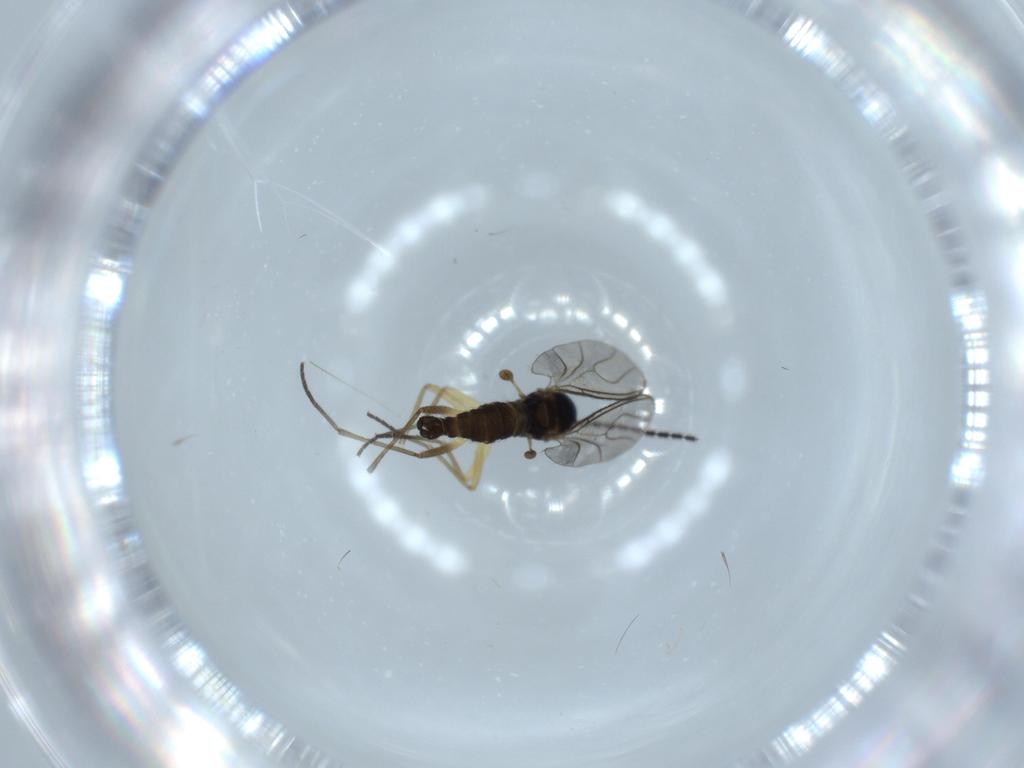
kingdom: Animalia
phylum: Arthropoda
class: Insecta
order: Diptera
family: Sciaridae
